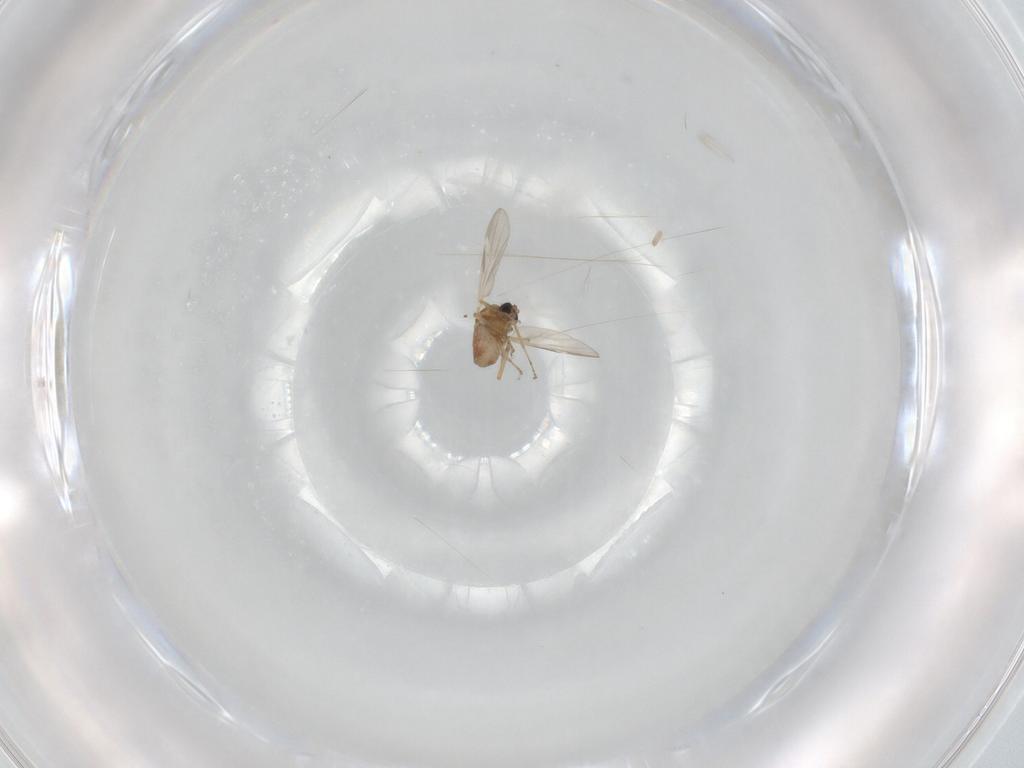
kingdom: Animalia
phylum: Arthropoda
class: Insecta
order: Diptera
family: Ceratopogonidae
